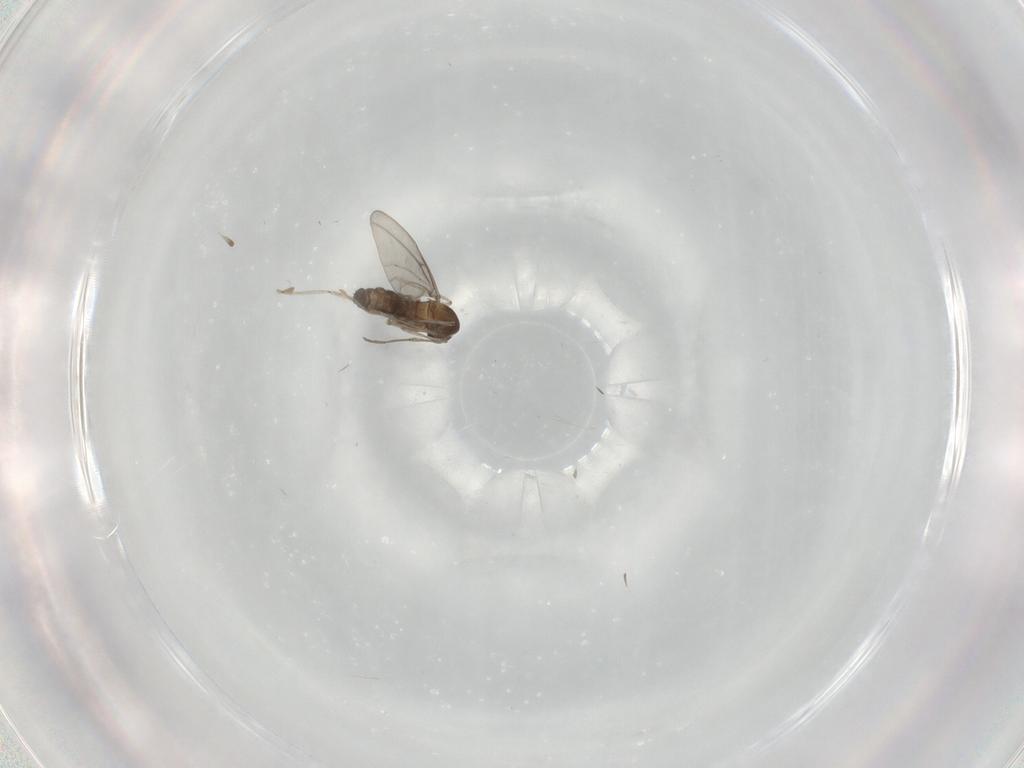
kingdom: Animalia
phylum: Arthropoda
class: Insecta
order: Diptera
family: Cecidomyiidae
